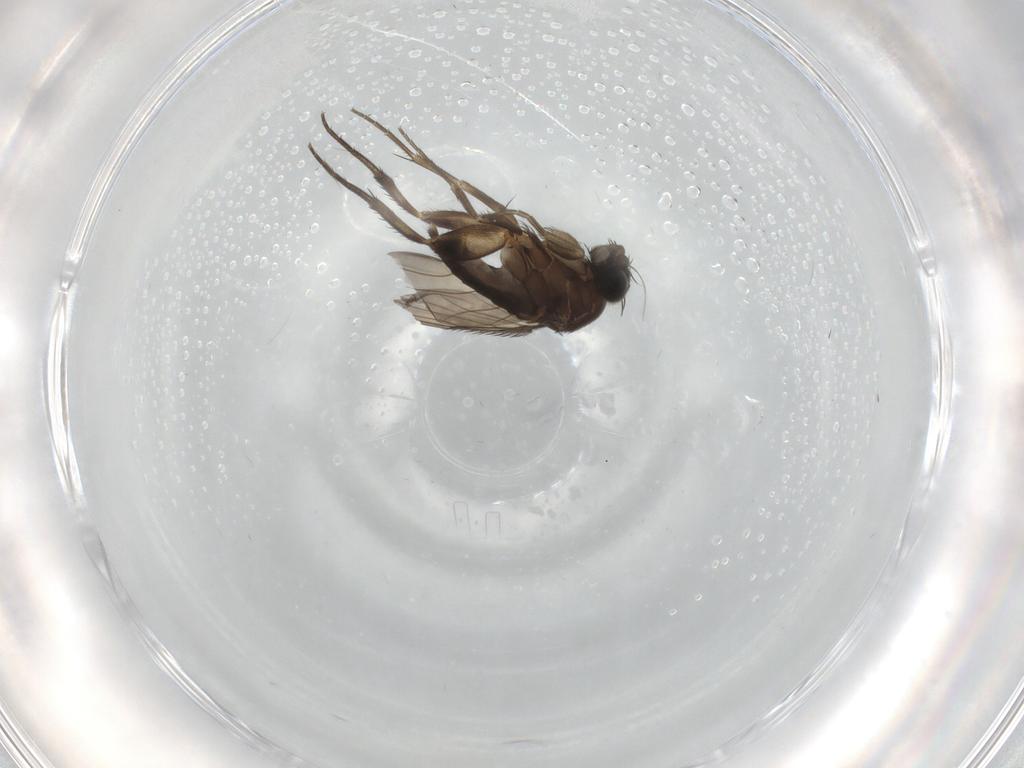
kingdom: Animalia
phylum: Arthropoda
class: Insecta
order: Diptera
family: Phoridae
